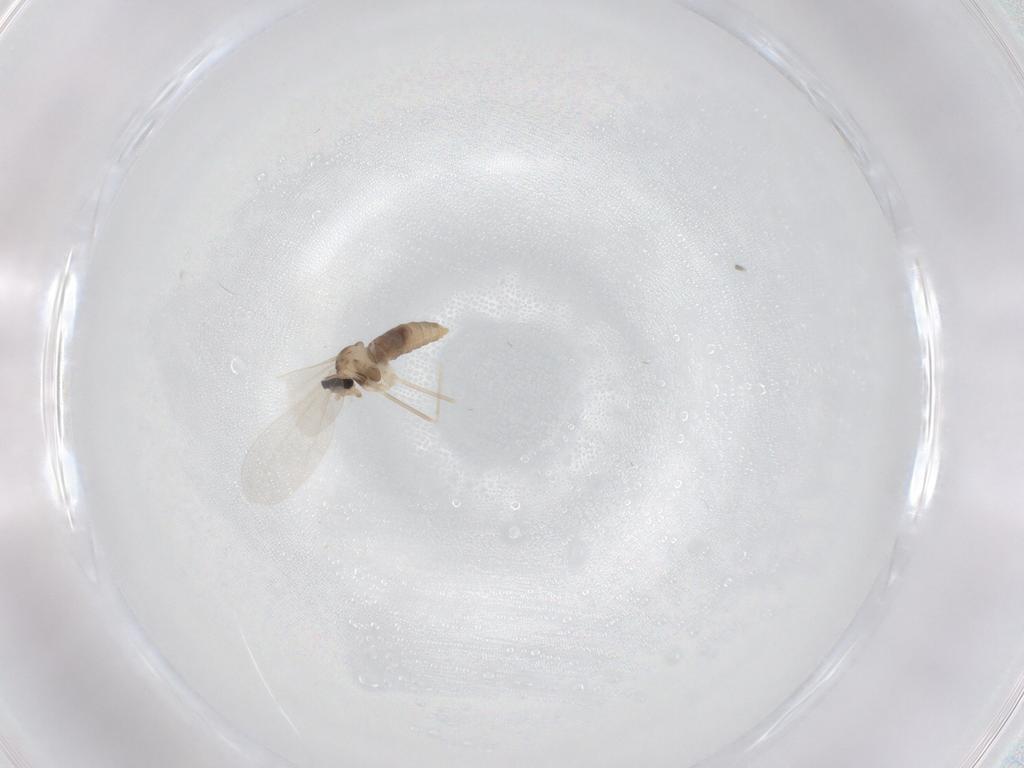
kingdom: Animalia
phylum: Arthropoda
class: Insecta
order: Diptera
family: Cecidomyiidae
